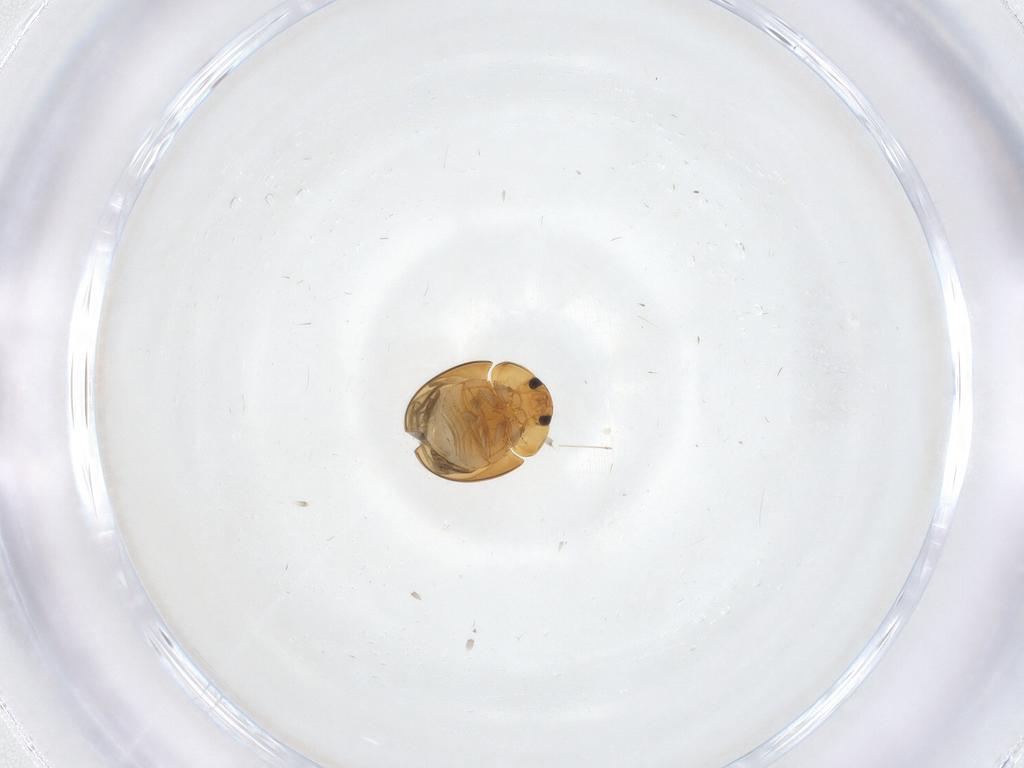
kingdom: Animalia
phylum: Arthropoda
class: Insecta
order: Coleoptera
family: Phalacridae
